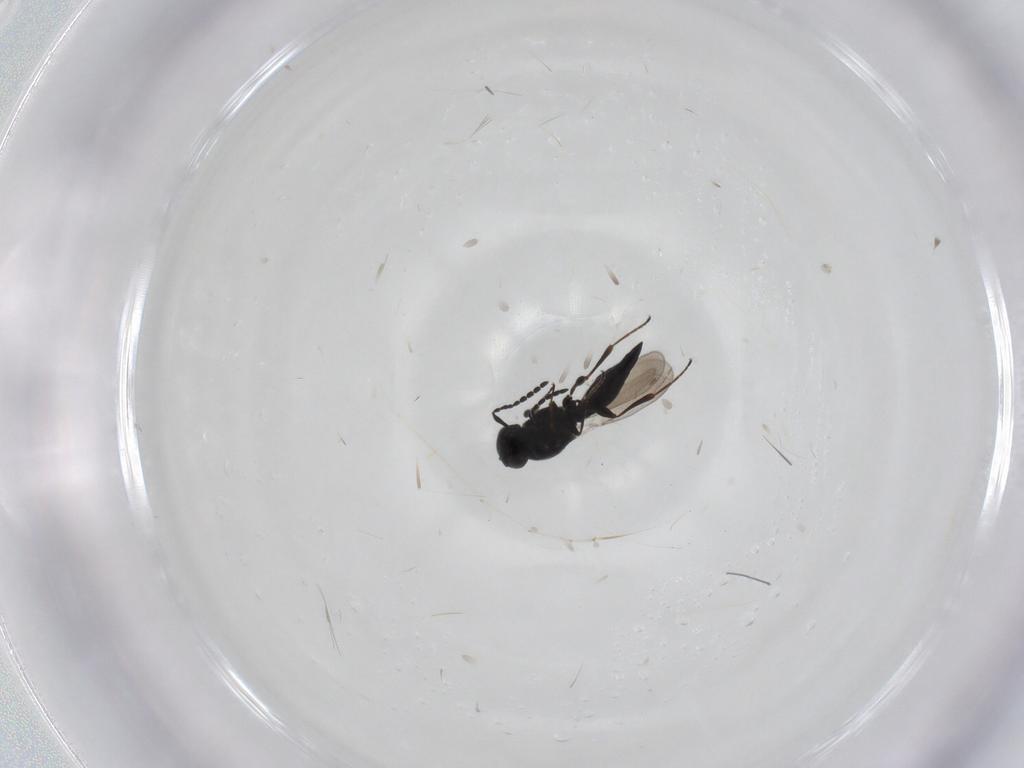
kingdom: Animalia
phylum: Arthropoda
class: Insecta
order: Hymenoptera
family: Platygastridae
